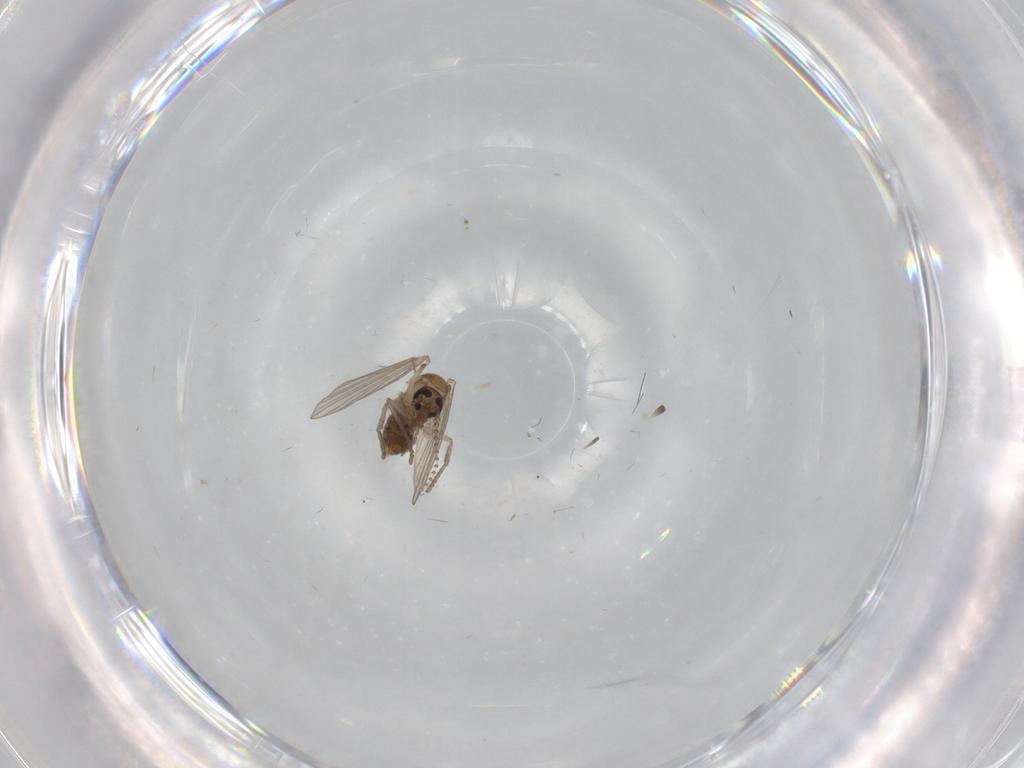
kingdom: Animalia
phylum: Arthropoda
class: Insecta
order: Diptera
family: Psychodidae
